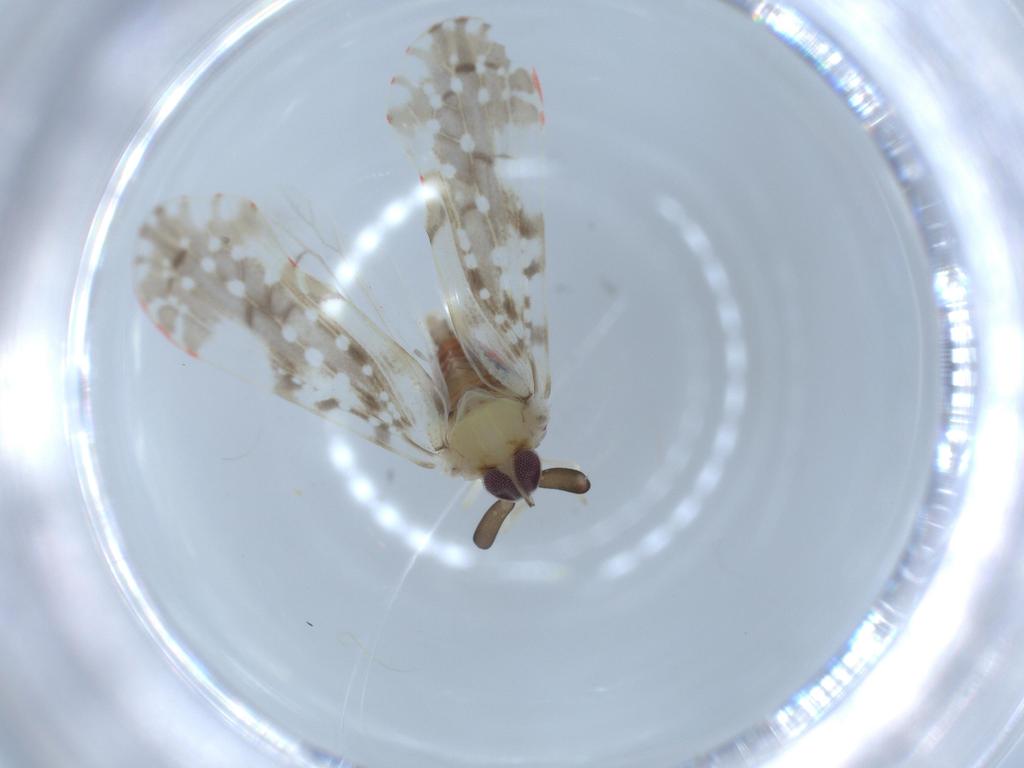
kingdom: Animalia
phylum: Arthropoda
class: Insecta
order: Hemiptera
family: Derbidae
